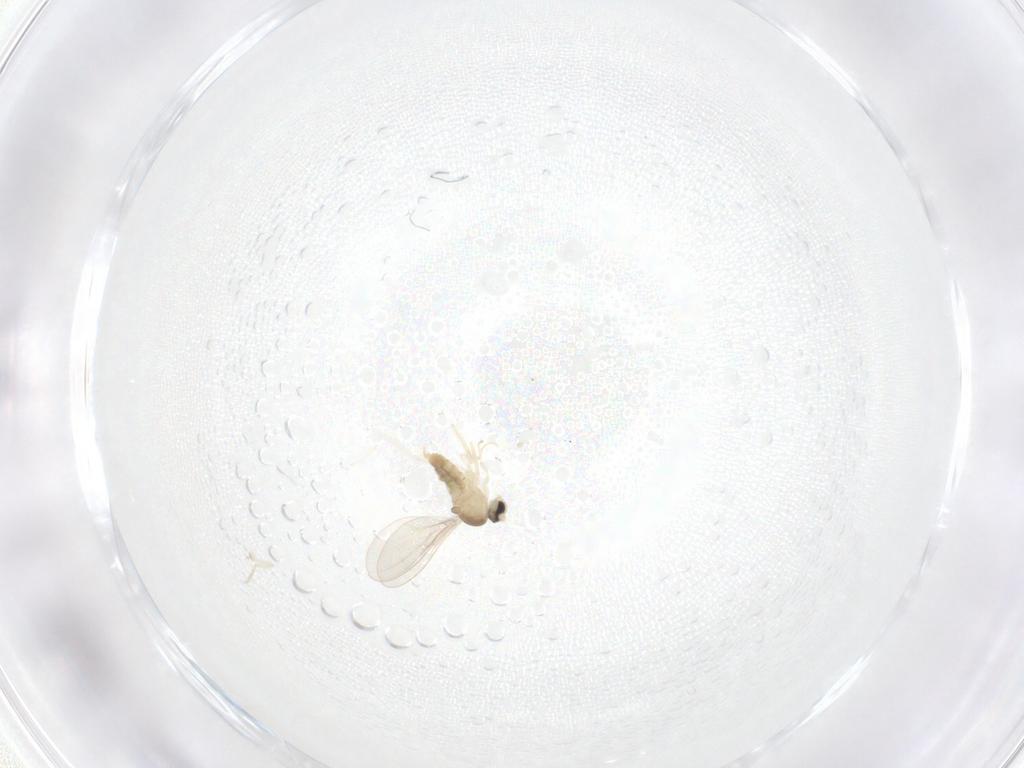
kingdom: Animalia
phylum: Arthropoda
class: Insecta
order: Diptera
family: Cecidomyiidae
